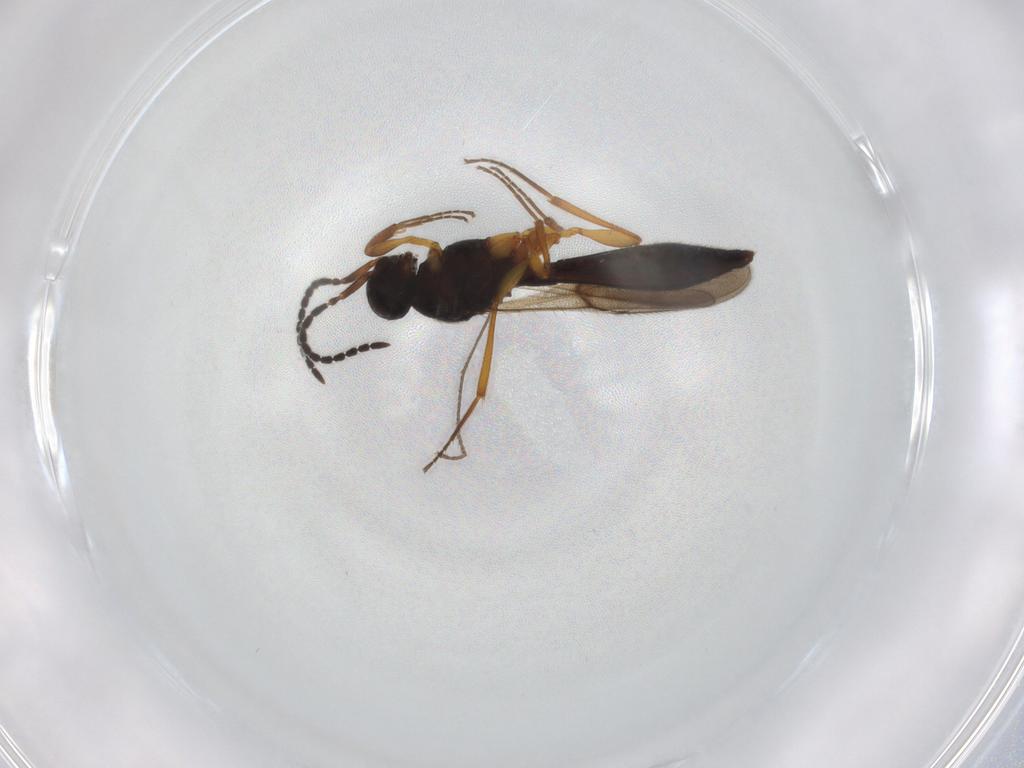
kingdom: Animalia
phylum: Arthropoda
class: Insecta
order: Hymenoptera
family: Scelionidae
